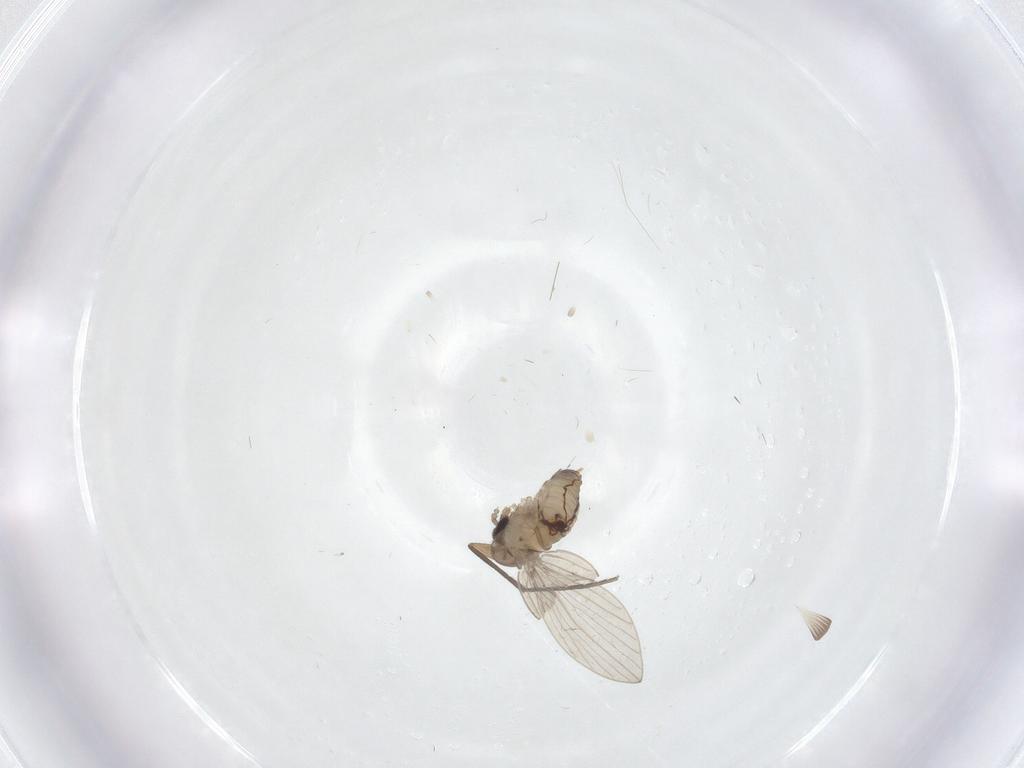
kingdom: Animalia
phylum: Arthropoda
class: Insecta
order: Diptera
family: Psychodidae
